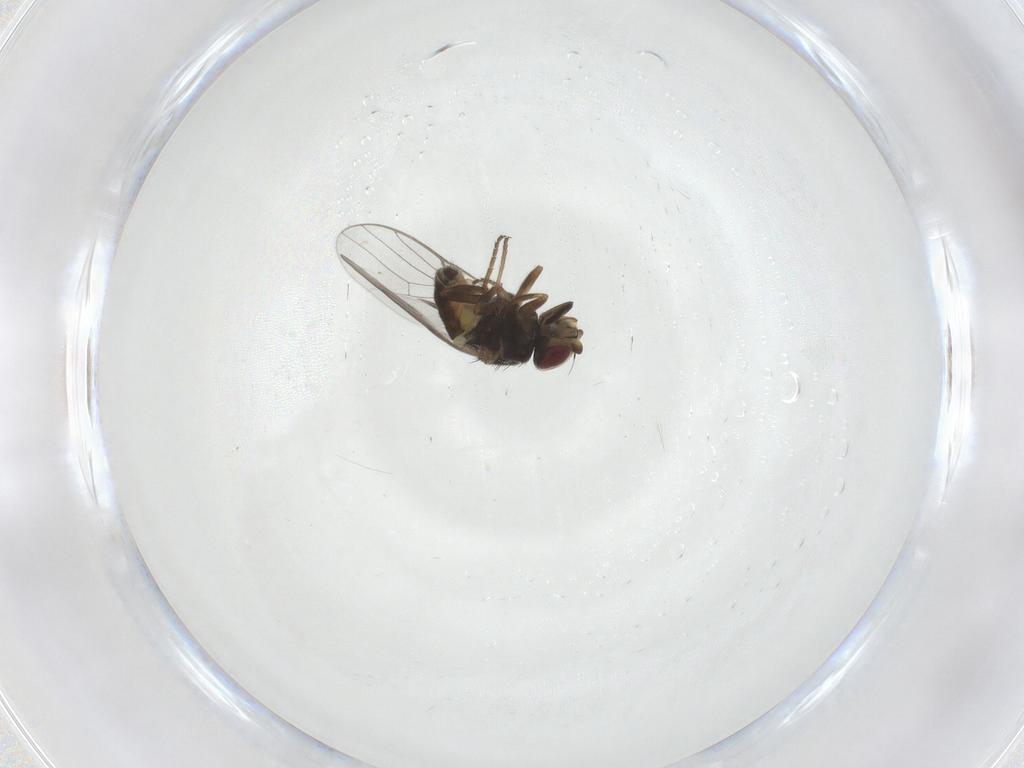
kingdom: Animalia
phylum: Arthropoda
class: Insecta
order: Diptera
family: Chloropidae
